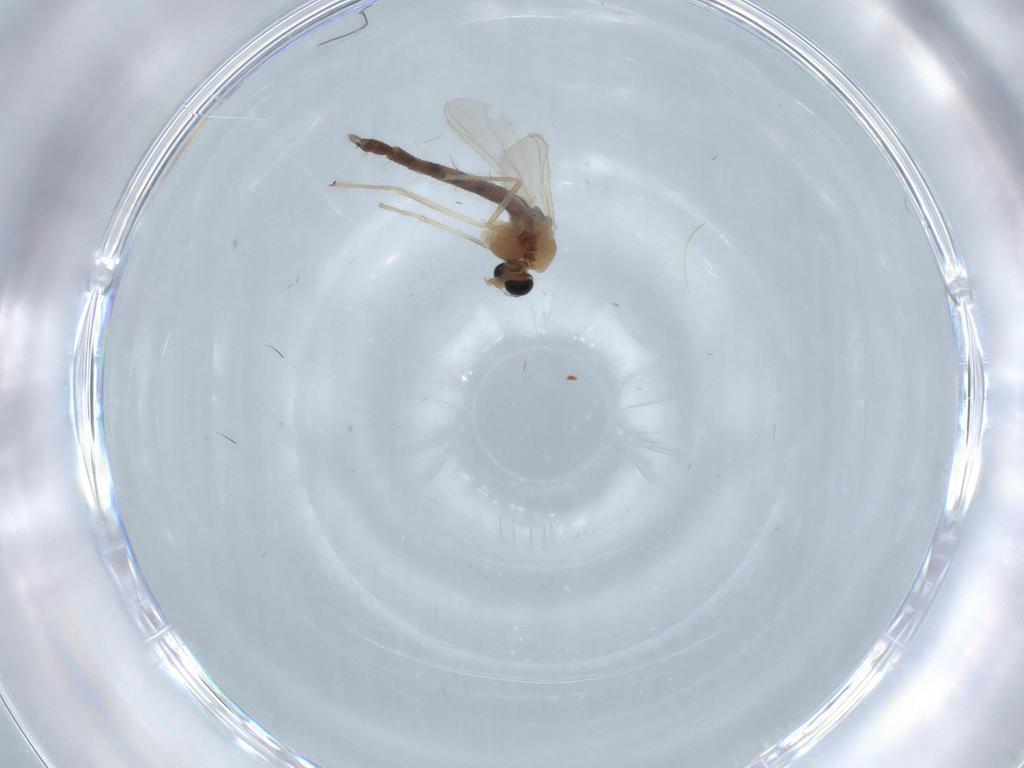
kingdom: Animalia
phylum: Arthropoda
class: Insecta
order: Diptera
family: Chironomidae
